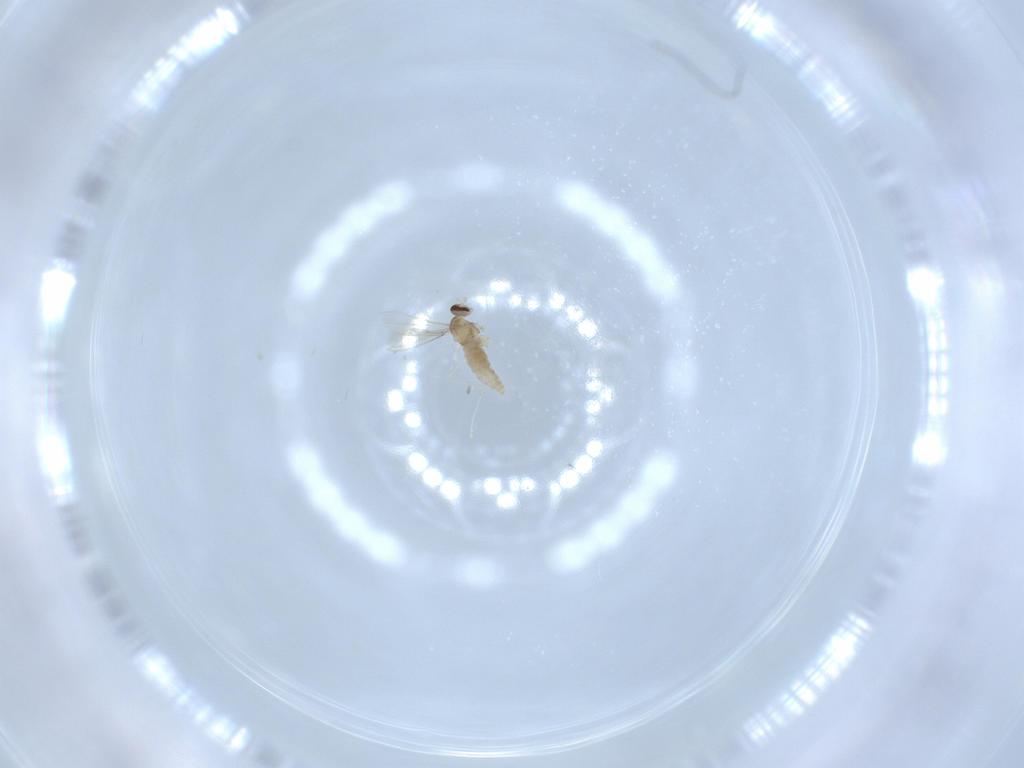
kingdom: Animalia
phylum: Arthropoda
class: Insecta
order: Diptera
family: Cecidomyiidae
